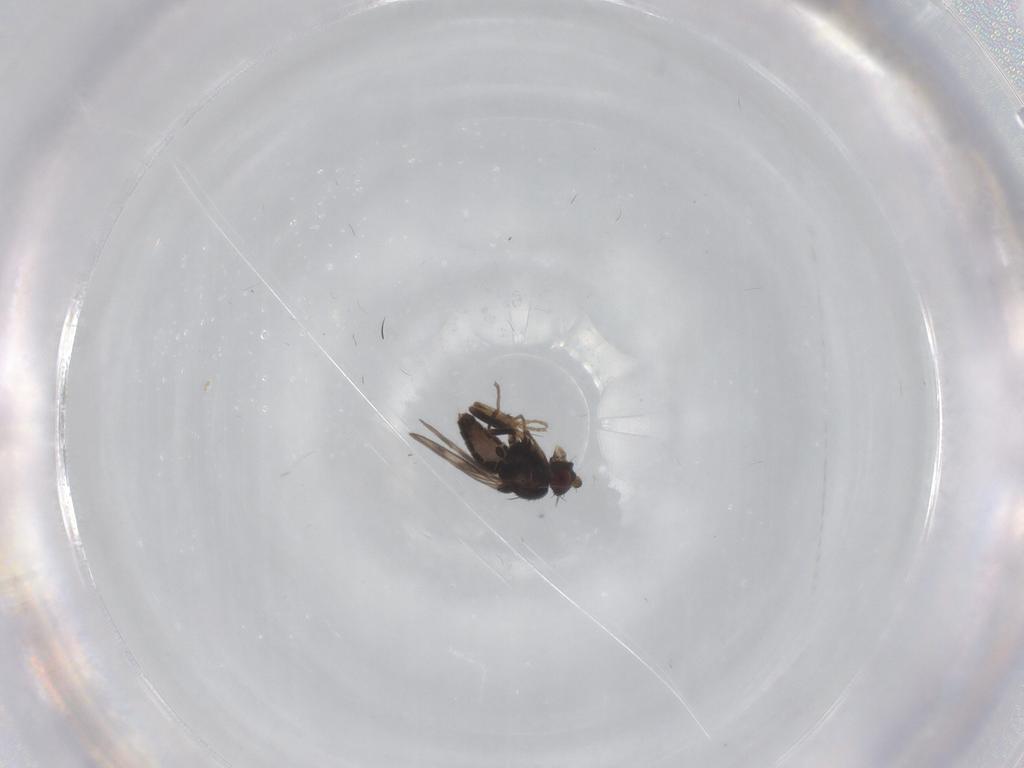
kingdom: Animalia
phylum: Arthropoda
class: Insecta
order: Diptera
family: Sphaeroceridae
